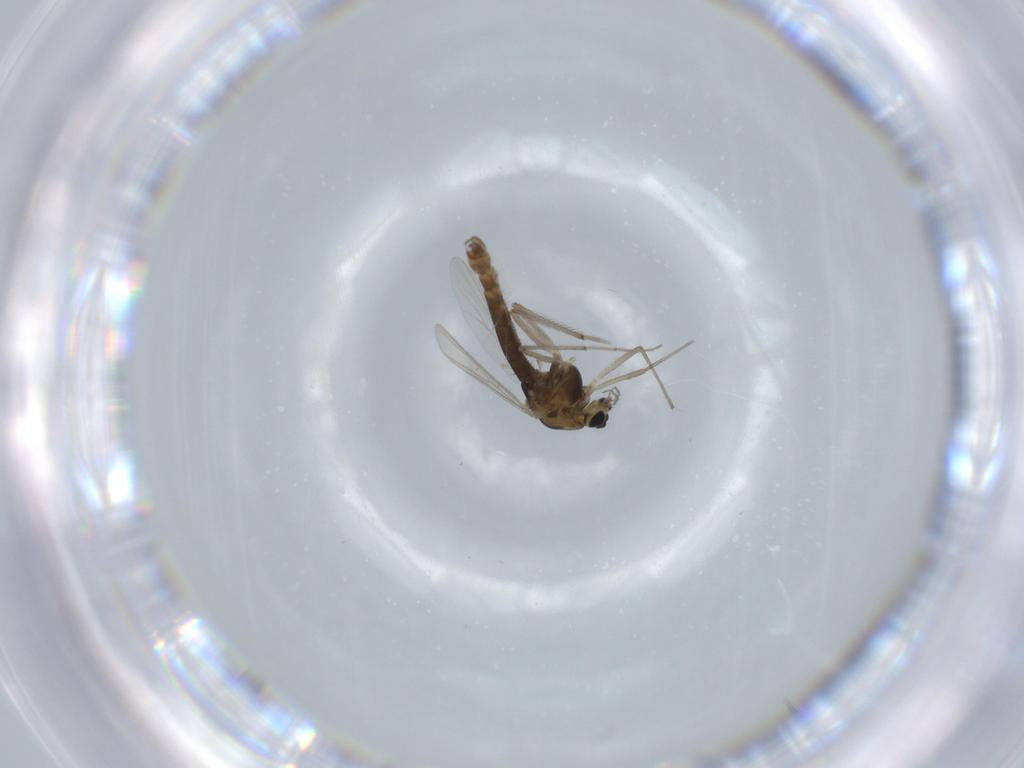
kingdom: Animalia
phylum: Arthropoda
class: Insecta
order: Diptera
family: Chironomidae
